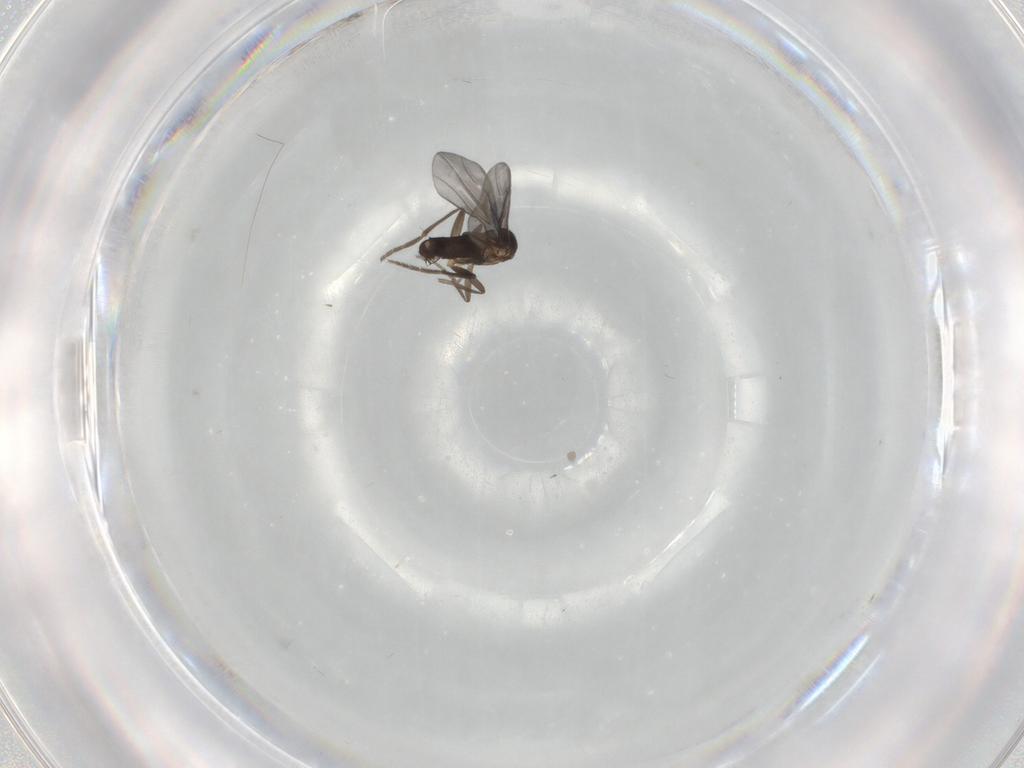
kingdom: Animalia
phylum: Arthropoda
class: Insecta
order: Diptera
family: Phoridae
